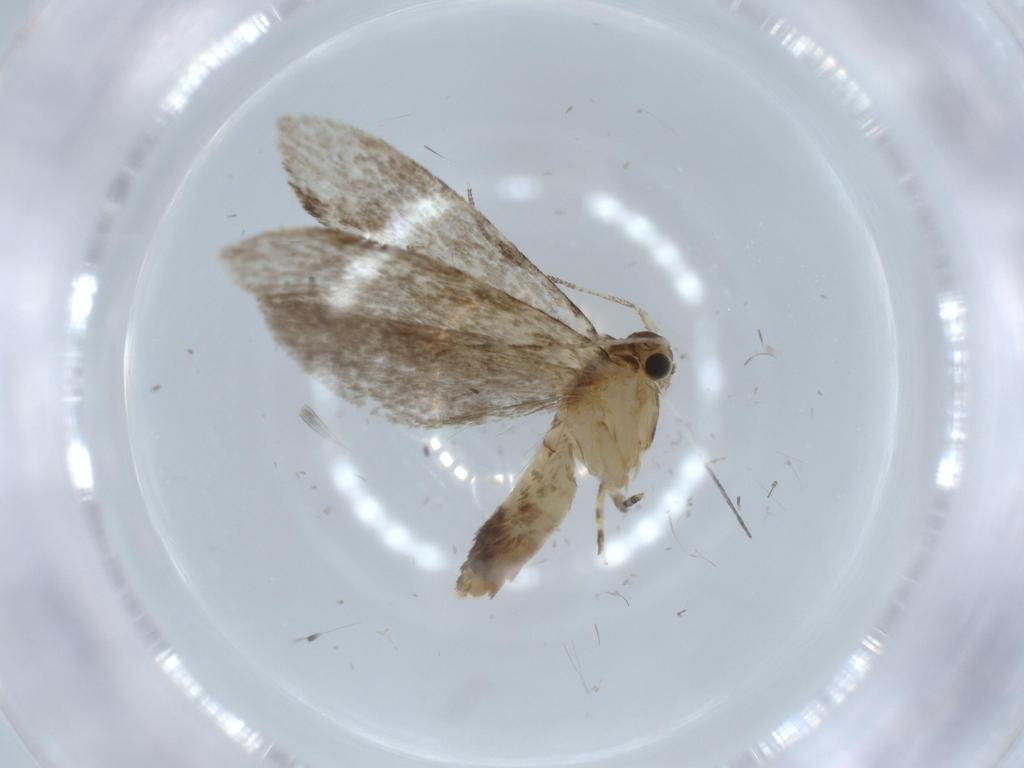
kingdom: Animalia
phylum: Arthropoda
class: Insecta
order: Lepidoptera
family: Tineidae
